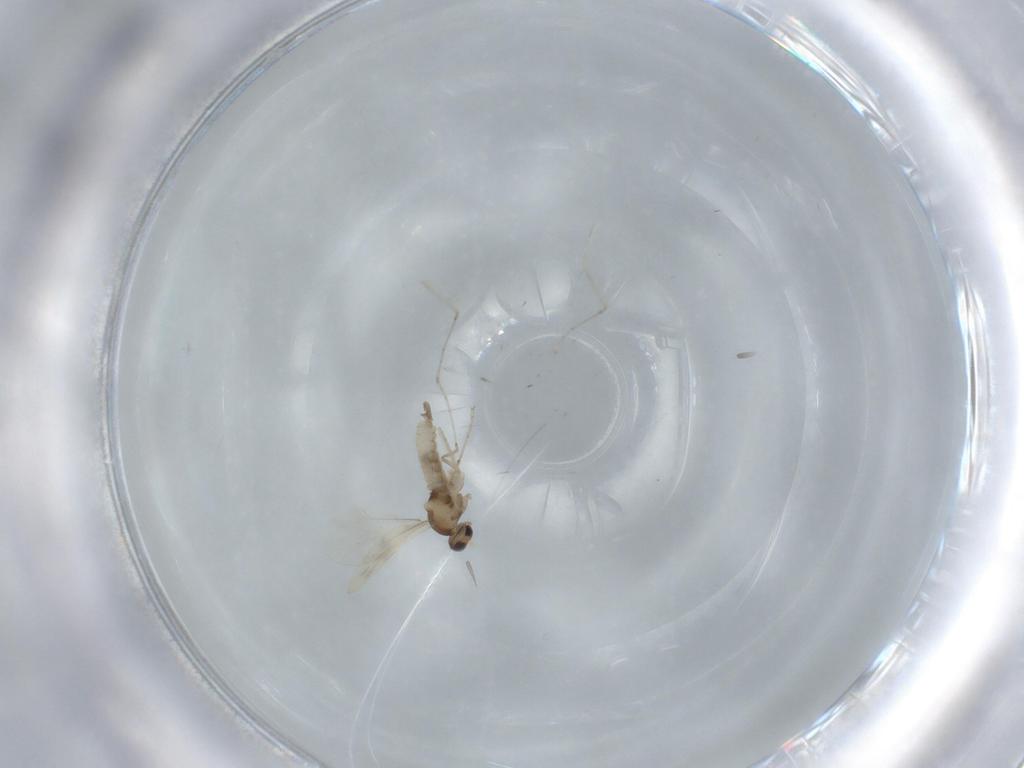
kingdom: Animalia
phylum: Arthropoda
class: Insecta
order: Diptera
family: Cecidomyiidae
